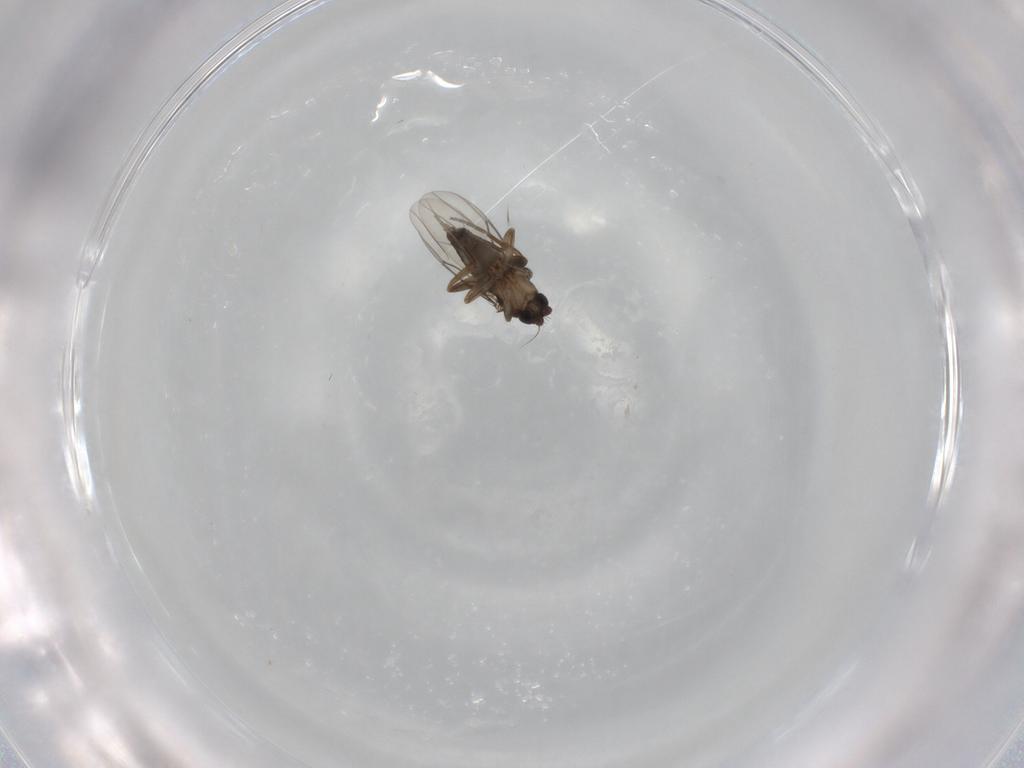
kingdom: Animalia
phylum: Arthropoda
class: Insecta
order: Diptera
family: Phoridae
